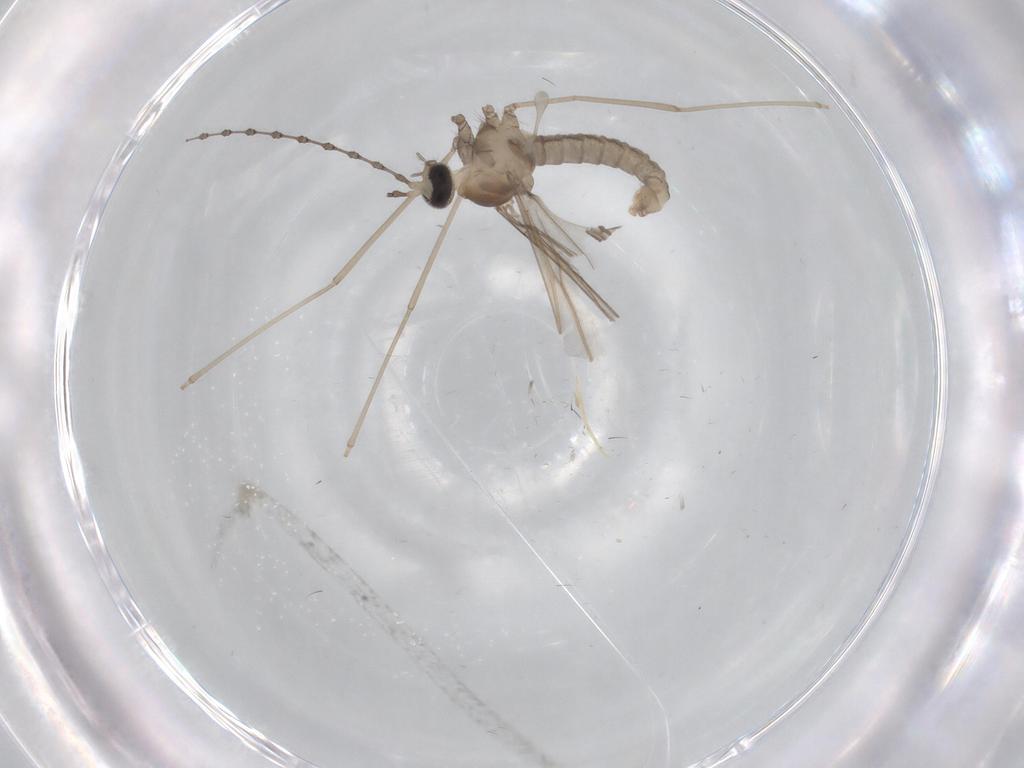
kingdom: Animalia
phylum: Arthropoda
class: Insecta
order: Diptera
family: Cecidomyiidae
